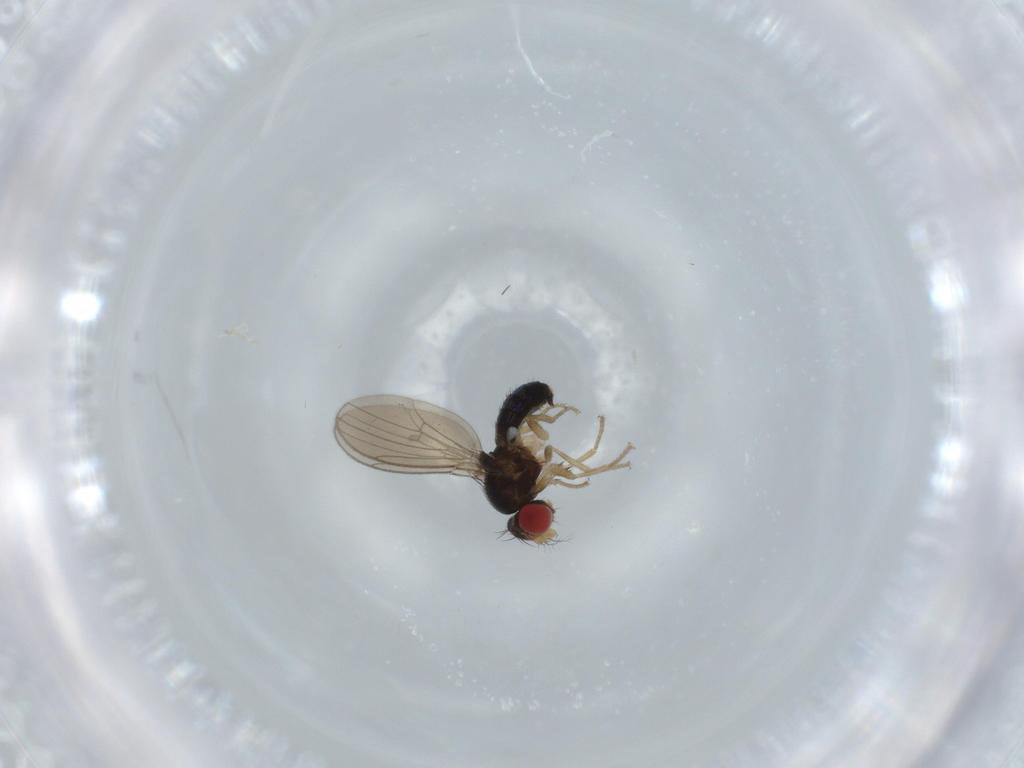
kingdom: Animalia
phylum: Arthropoda
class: Insecta
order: Diptera
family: Drosophilidae
